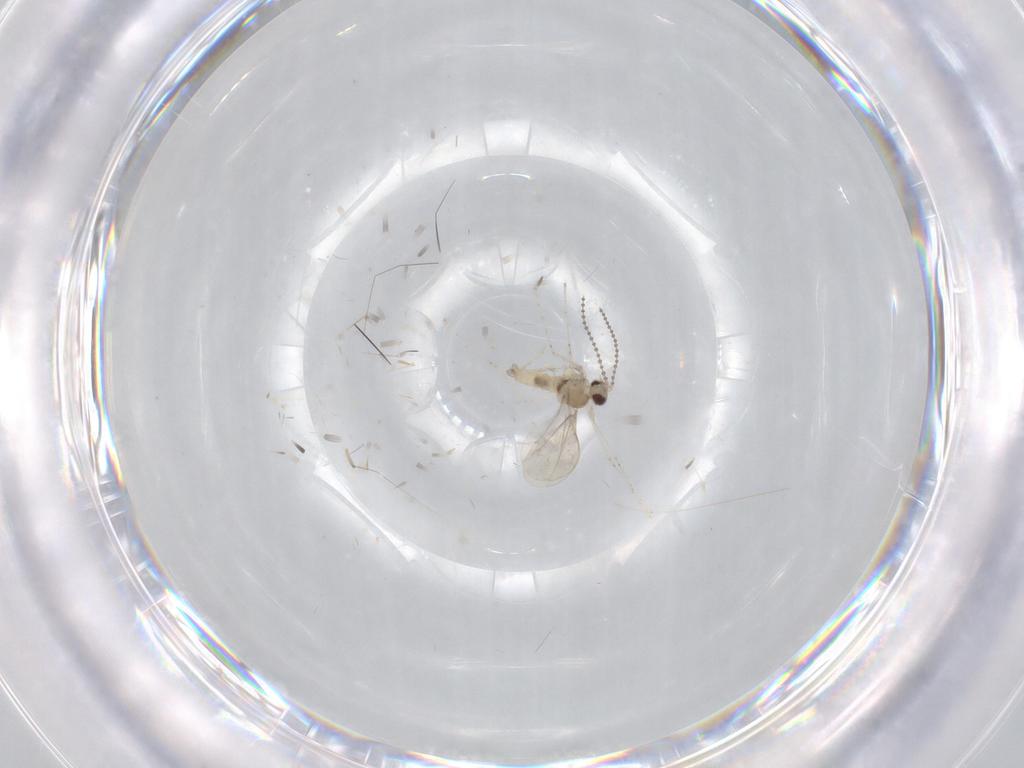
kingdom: Animalia
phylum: Arthropoda
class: Insecta
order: Diptera
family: Cecidomyiidae
